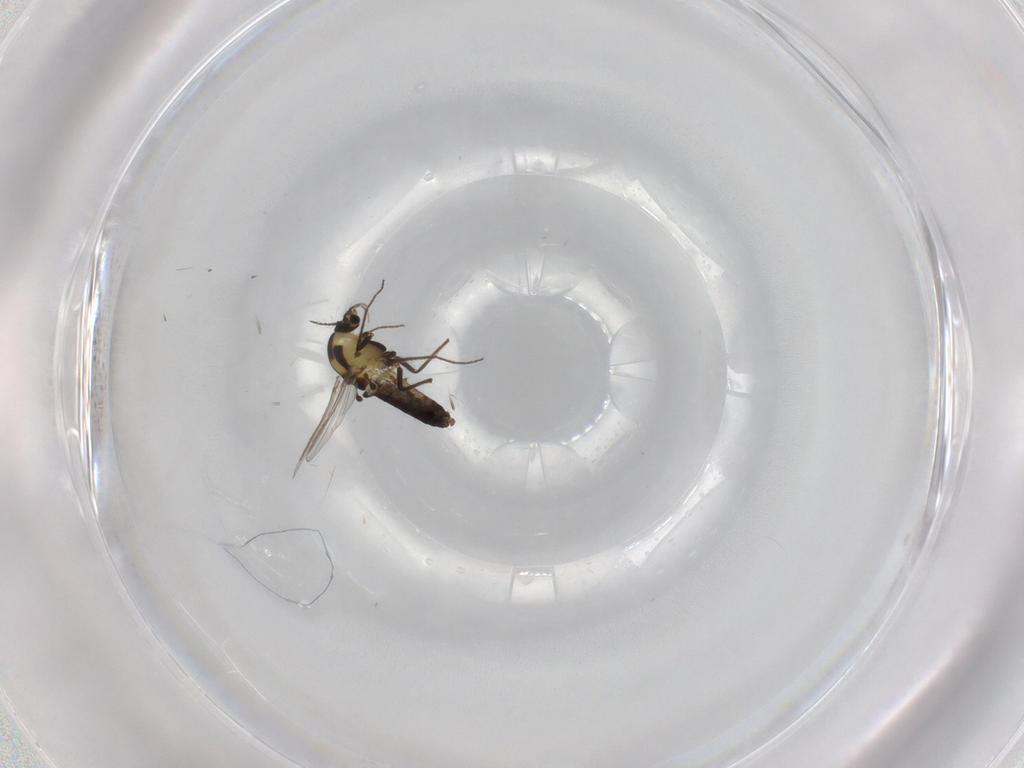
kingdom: Animalia
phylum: Arthropoda
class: Insecta
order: Diptera
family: Chironomidae
